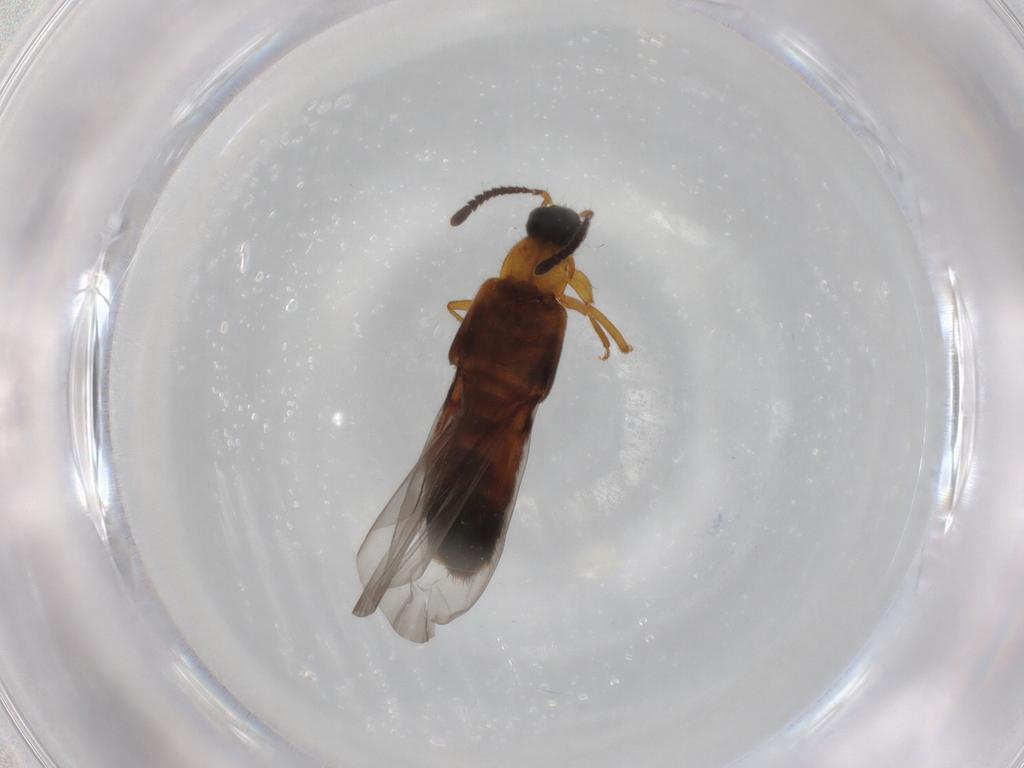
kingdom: Animalia
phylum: Arthropoda
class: Insecta
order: Coleoptera
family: Staphylinidae
